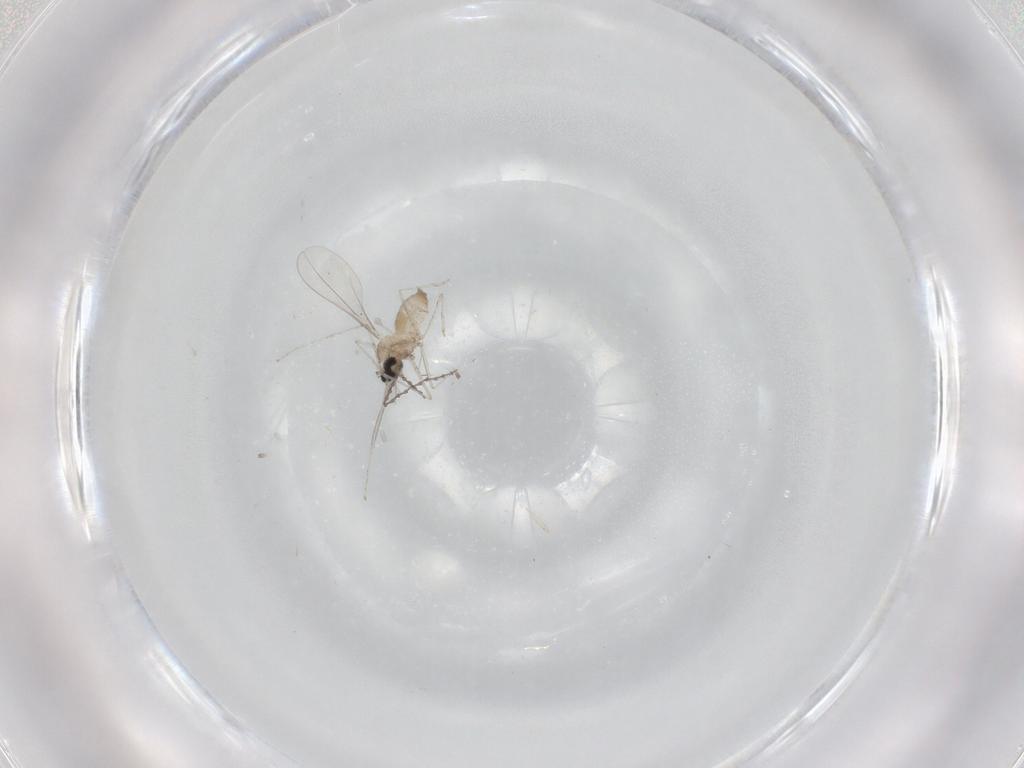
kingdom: Animalia
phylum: Arthropoda
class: Insecta
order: Diptera
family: Cecidomyiidae
